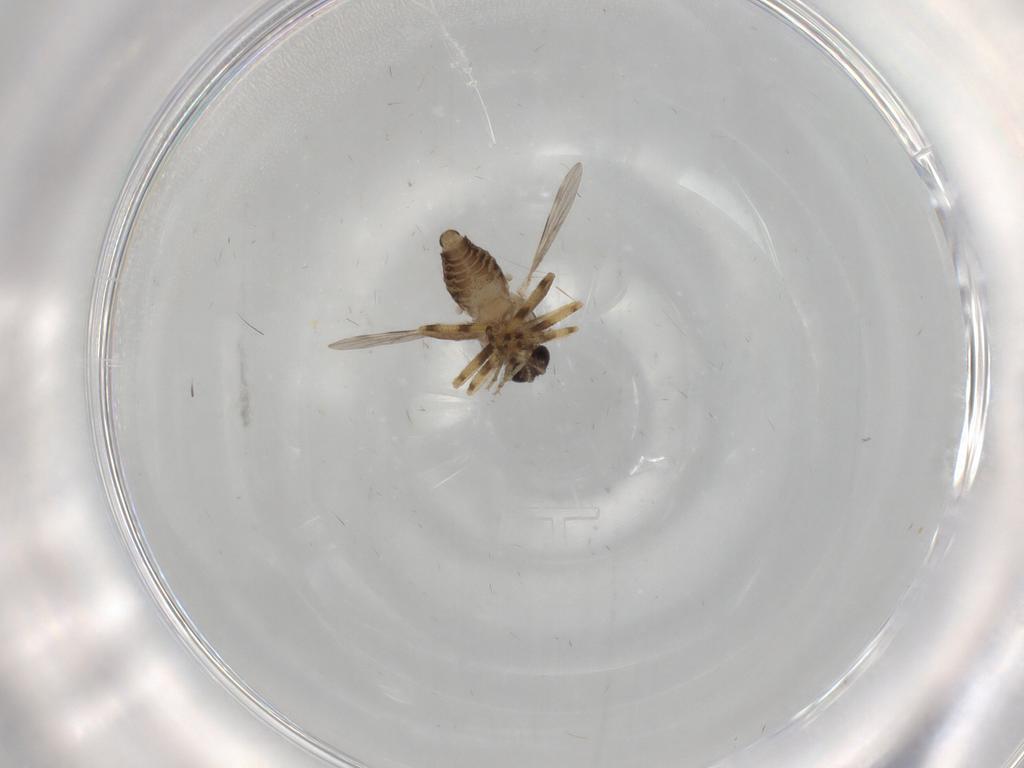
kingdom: Animalia
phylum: Arthropoda
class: Insecta
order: Diptera
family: Ceratopogonidae
